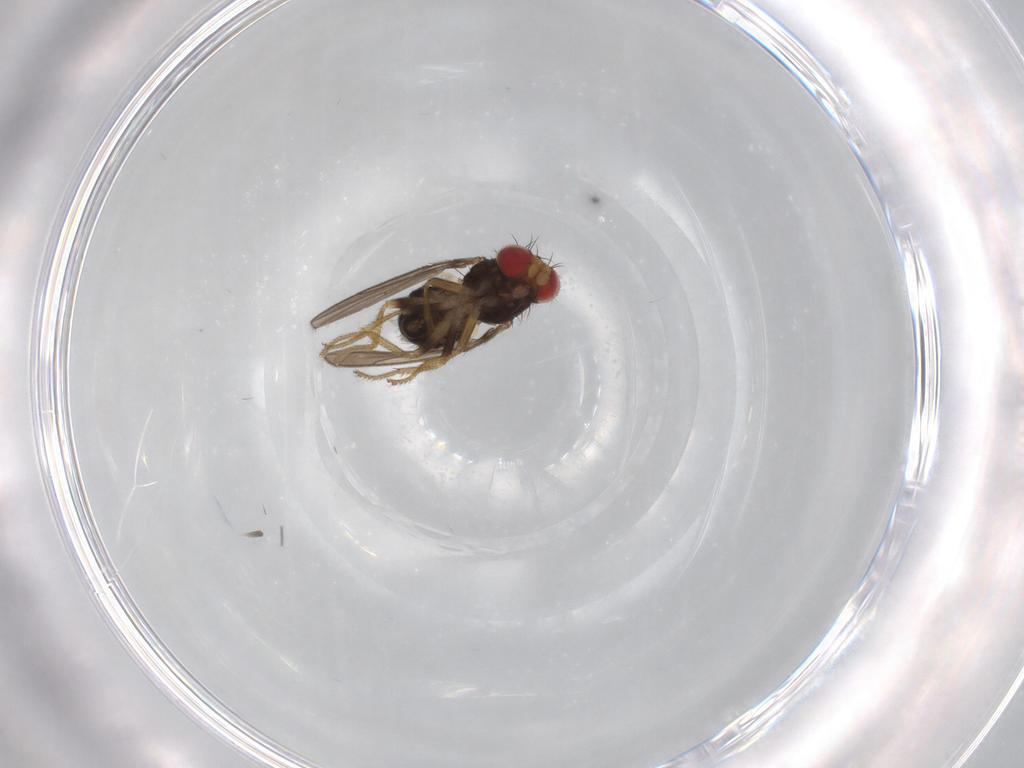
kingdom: Animalia
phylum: Arthropoda
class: Insecta
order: Diptera
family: Drosophilidae
